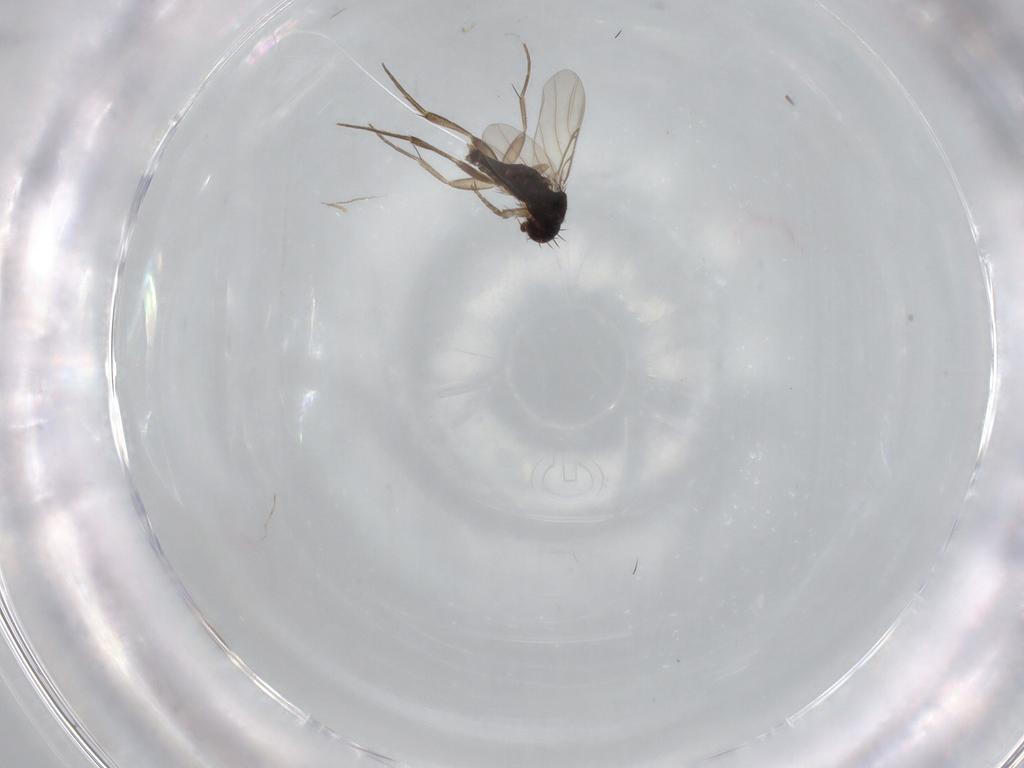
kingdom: Animalia
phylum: Arthropoda
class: Insecta
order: Diptera
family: Phoridae
